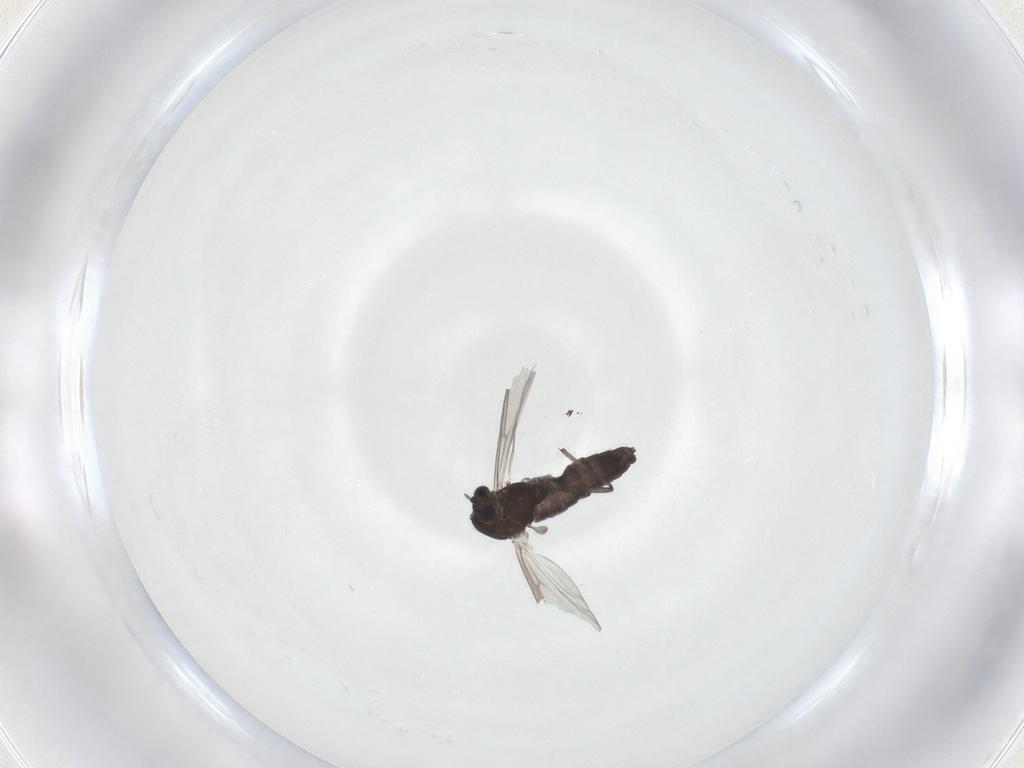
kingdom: Animalia
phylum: Arthropoda
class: Insecta
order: Diptera
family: Chironomidae
